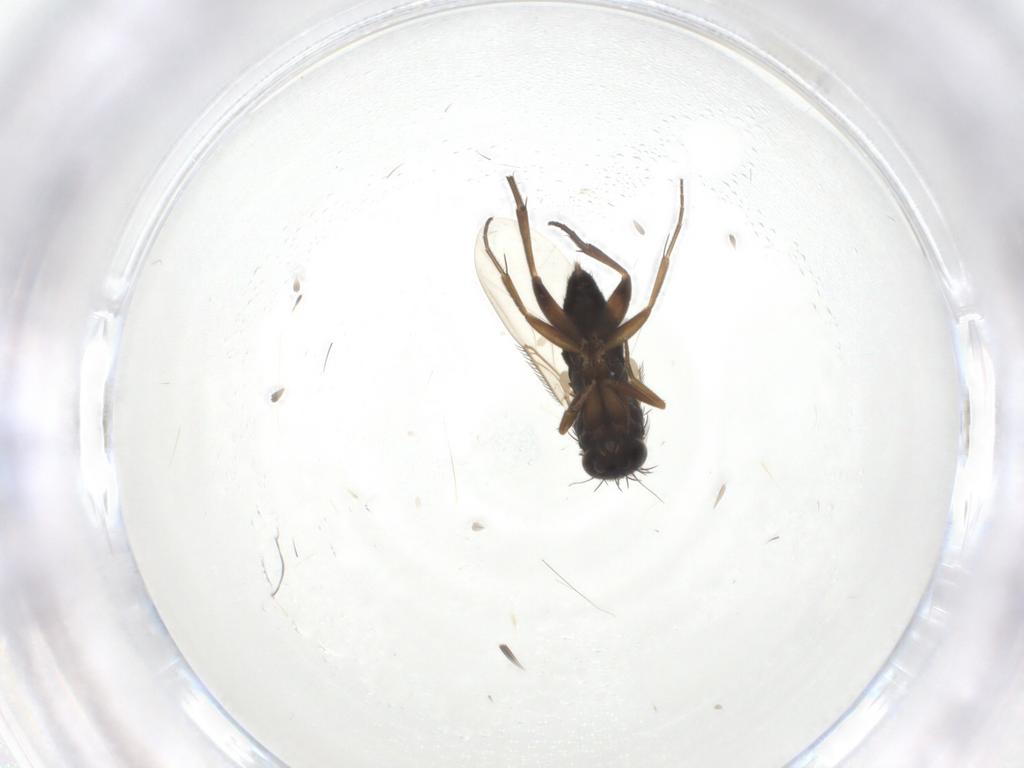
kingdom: Animalia
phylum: Arthropoda
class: Insecta
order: Diptera
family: Phoridae
